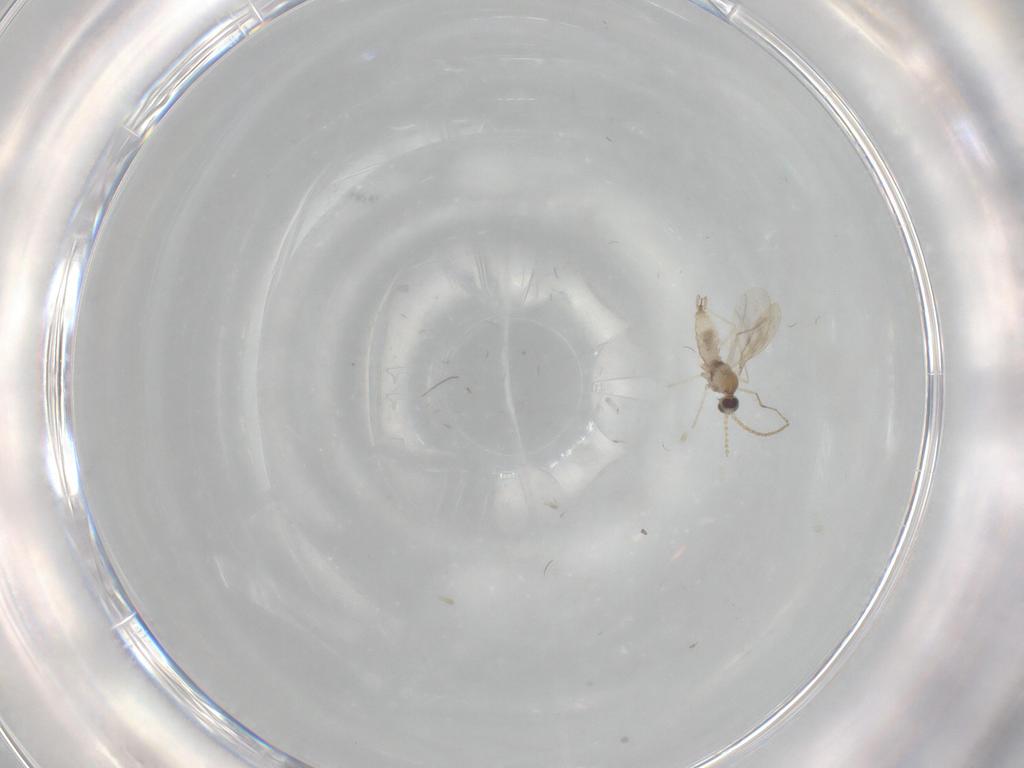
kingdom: Animalia
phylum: Arthropoda
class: Insecta
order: Diptera
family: Cecidomyiidae
